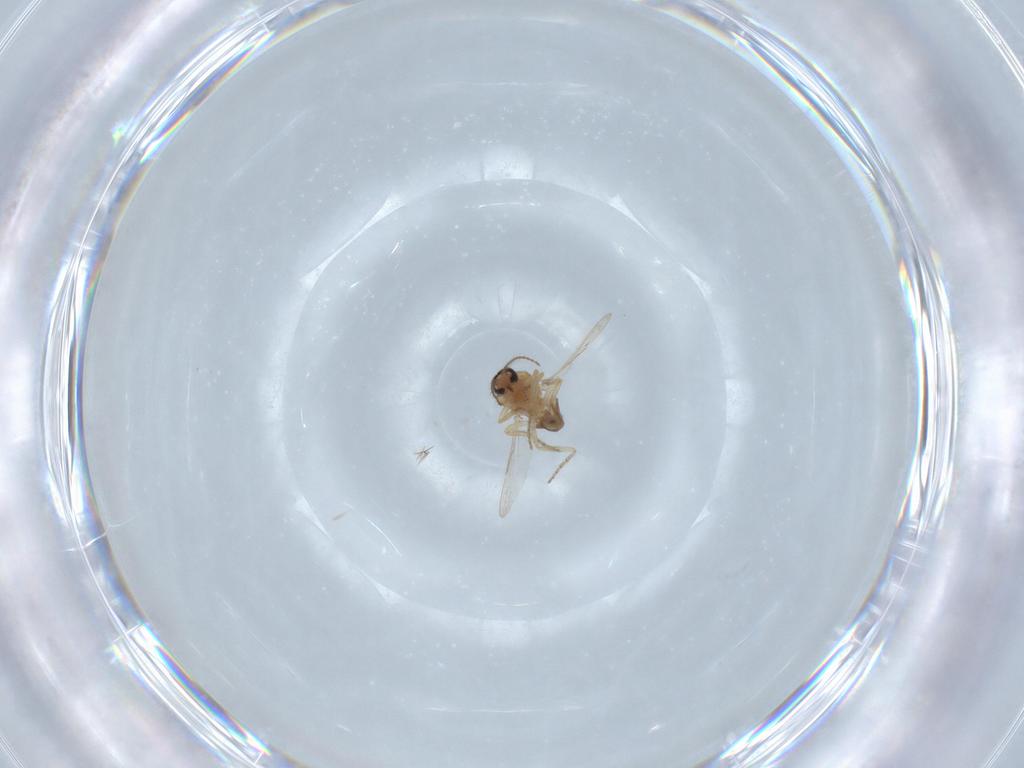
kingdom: Animalia
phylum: Arthropoda
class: Insecta
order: Diptera
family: Ceratopogonidae
